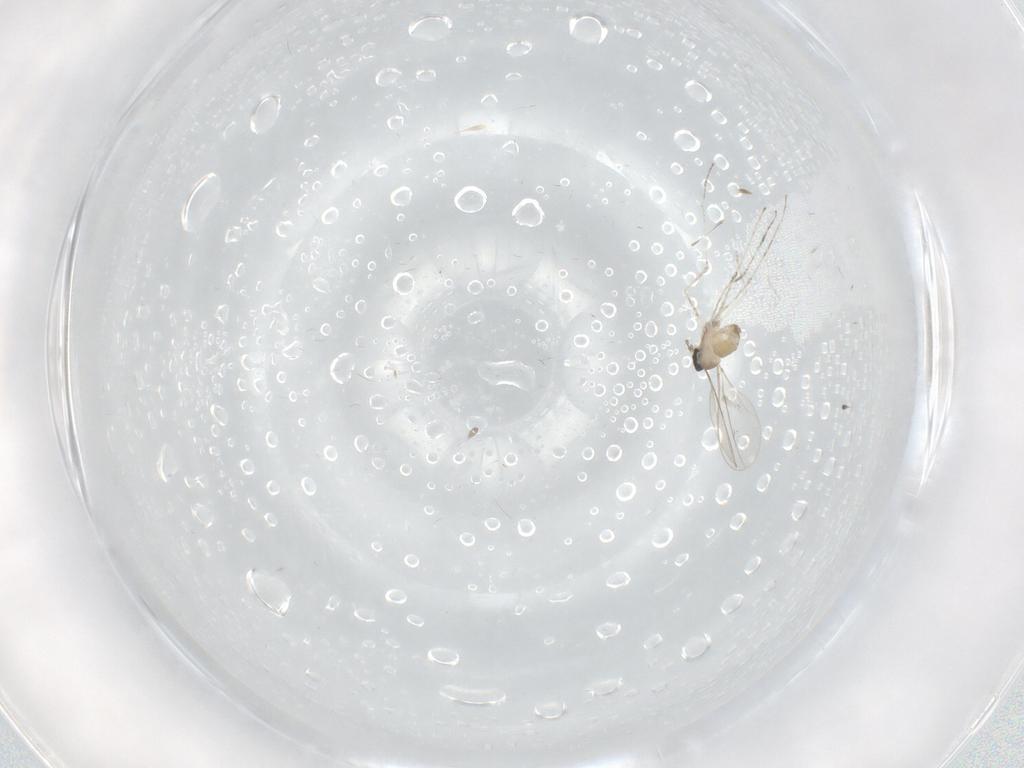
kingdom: Animalia
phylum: Arthropoda
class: Insecta
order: Diptera
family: Cecidomyiidae
